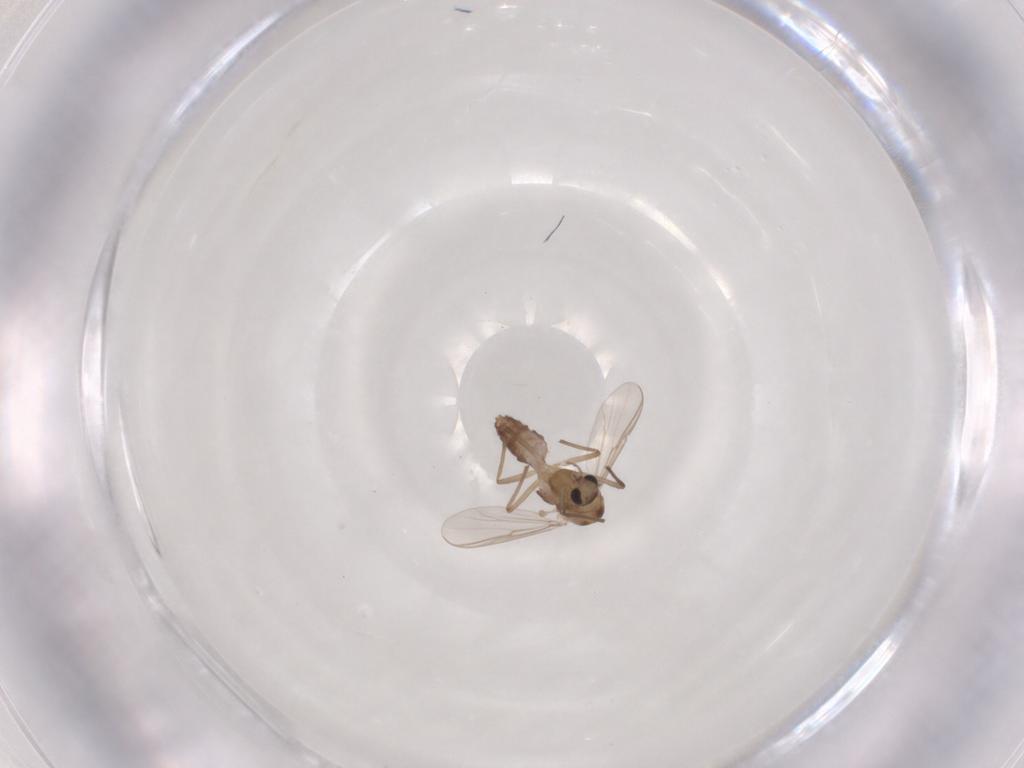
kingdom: Animalia
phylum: Arthropoda
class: Insecta
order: Diptera
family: Chironomidae
